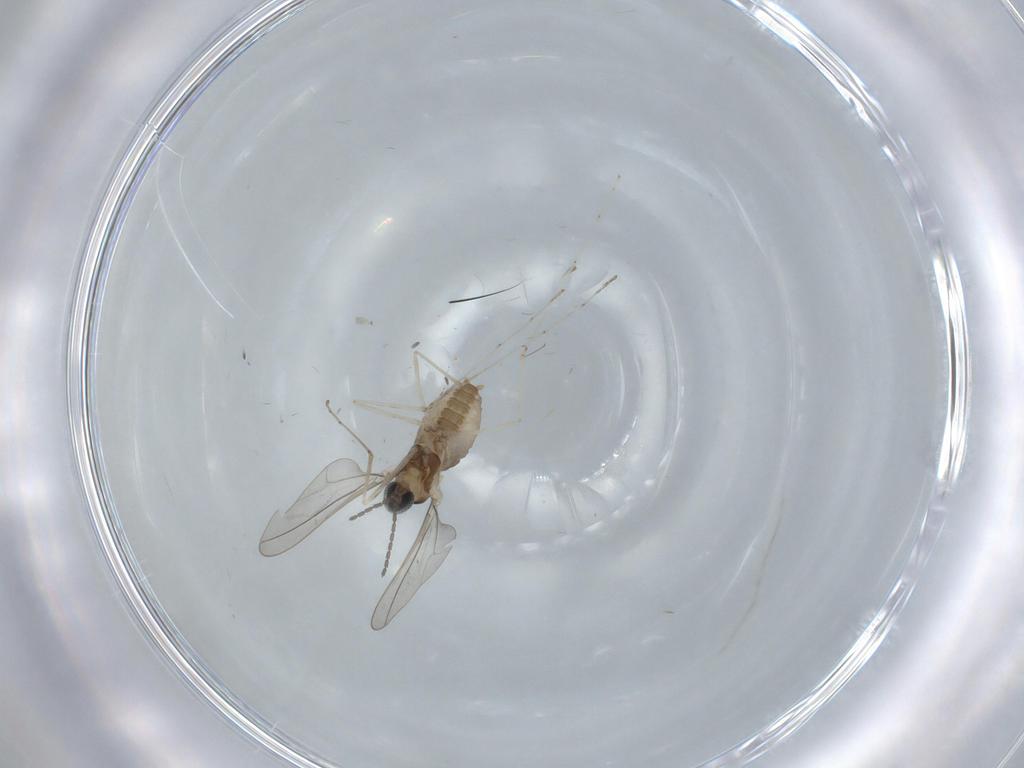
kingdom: Animalia
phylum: Arthropoda
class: Insecta
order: Diptera
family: Cecidomyiidae
